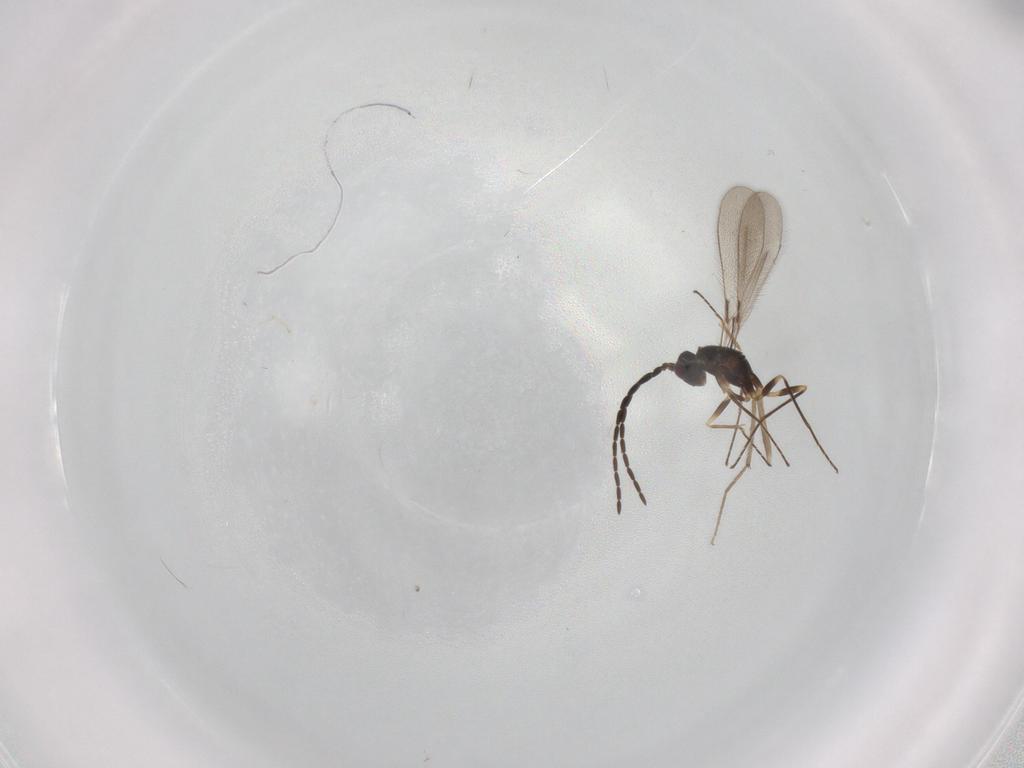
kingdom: Animalia
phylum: Arthropoda
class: Insecta
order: Hymenoptera
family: Mymaridae
